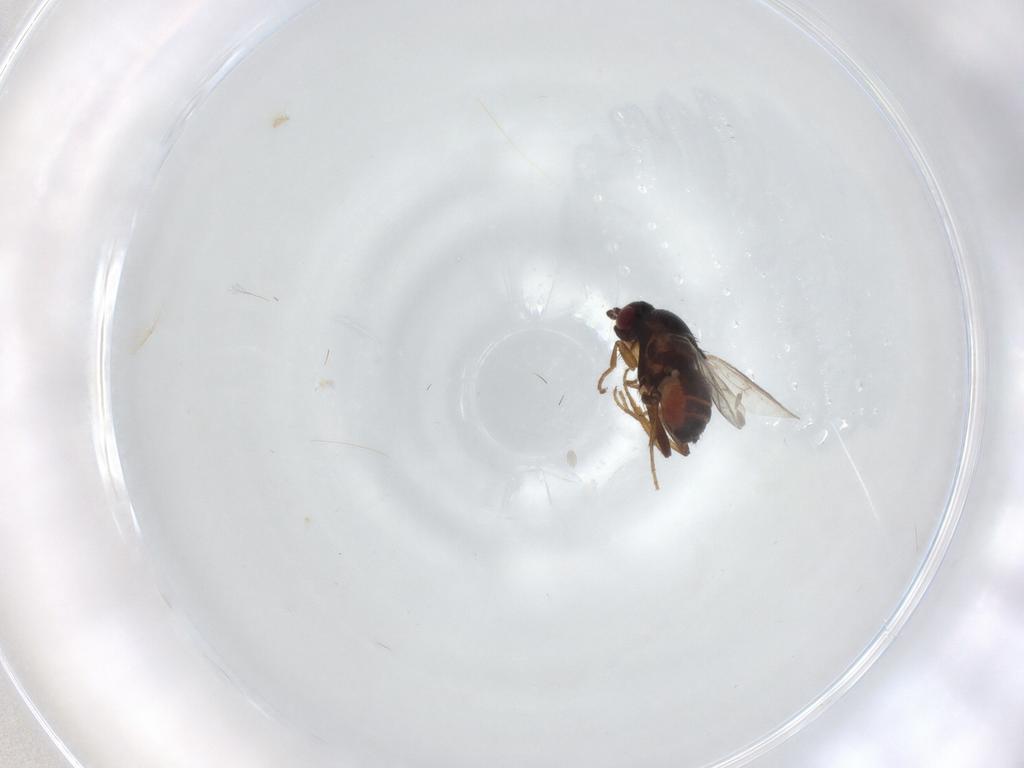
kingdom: Animalia
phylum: Arthropoda
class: Insecta
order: Diptera
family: Sphaeroceridae
